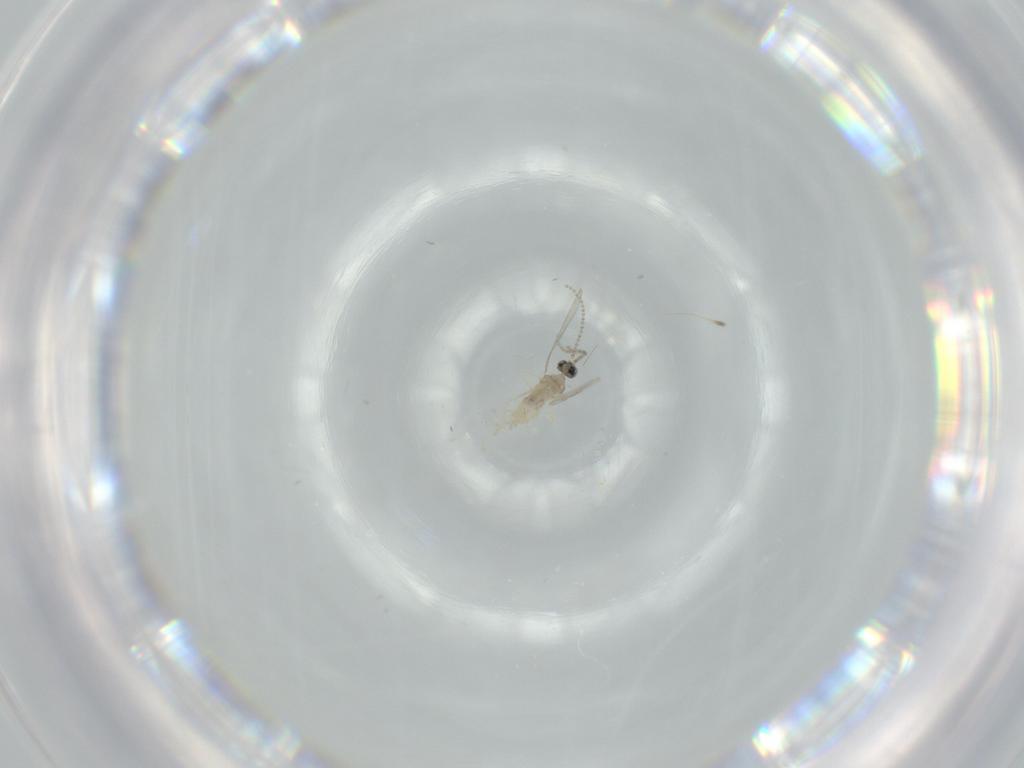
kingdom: Animalia
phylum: Arthropoda
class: Insecta
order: Diptera
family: Cecidomyiidae
